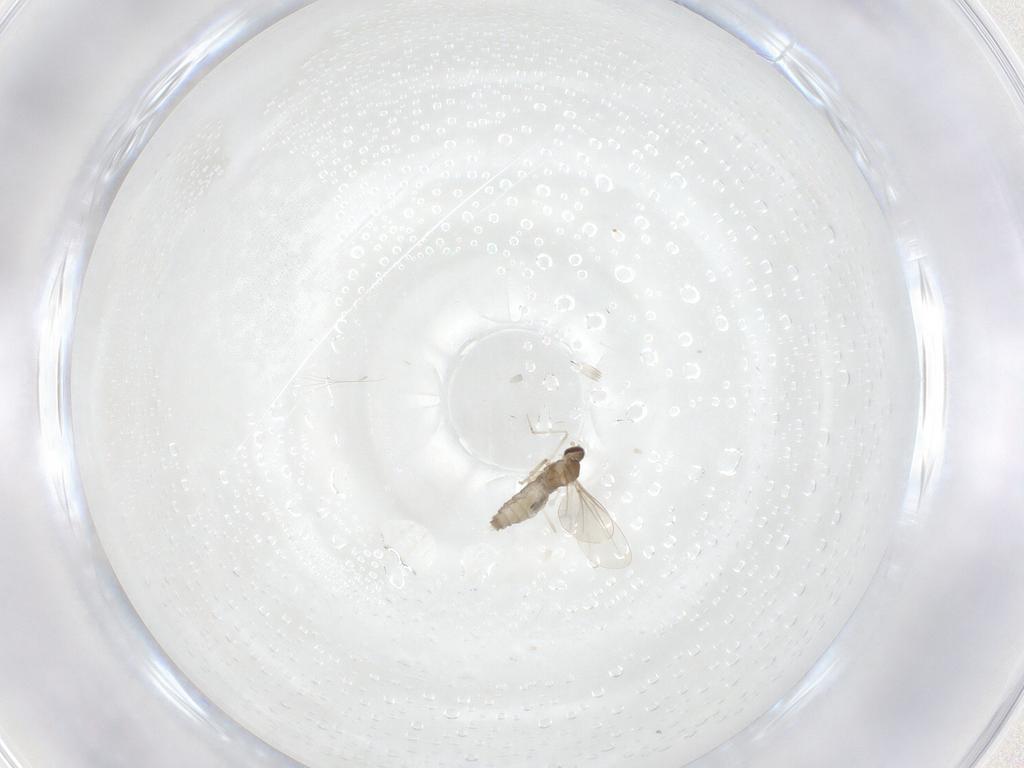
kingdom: Animalia
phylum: Arthropoda
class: Insecta
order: Diptera
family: Cecidomyiidae
